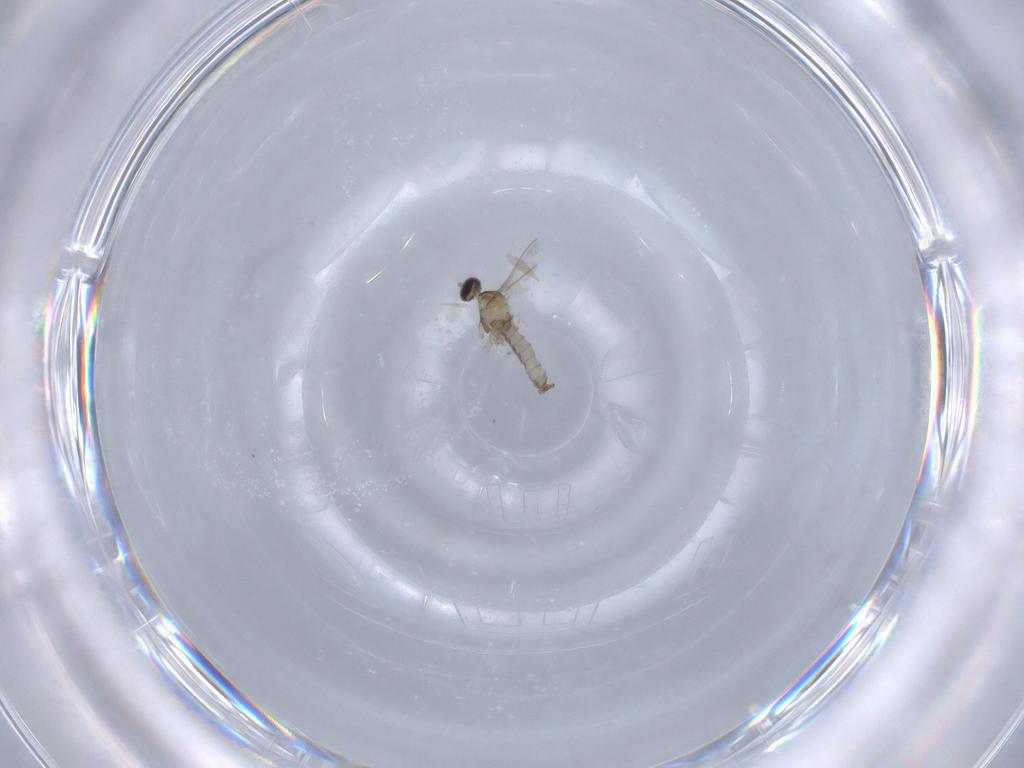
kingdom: Animalia
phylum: Arthropoda
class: Insecta
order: Diptera
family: Cecidomyiidae
